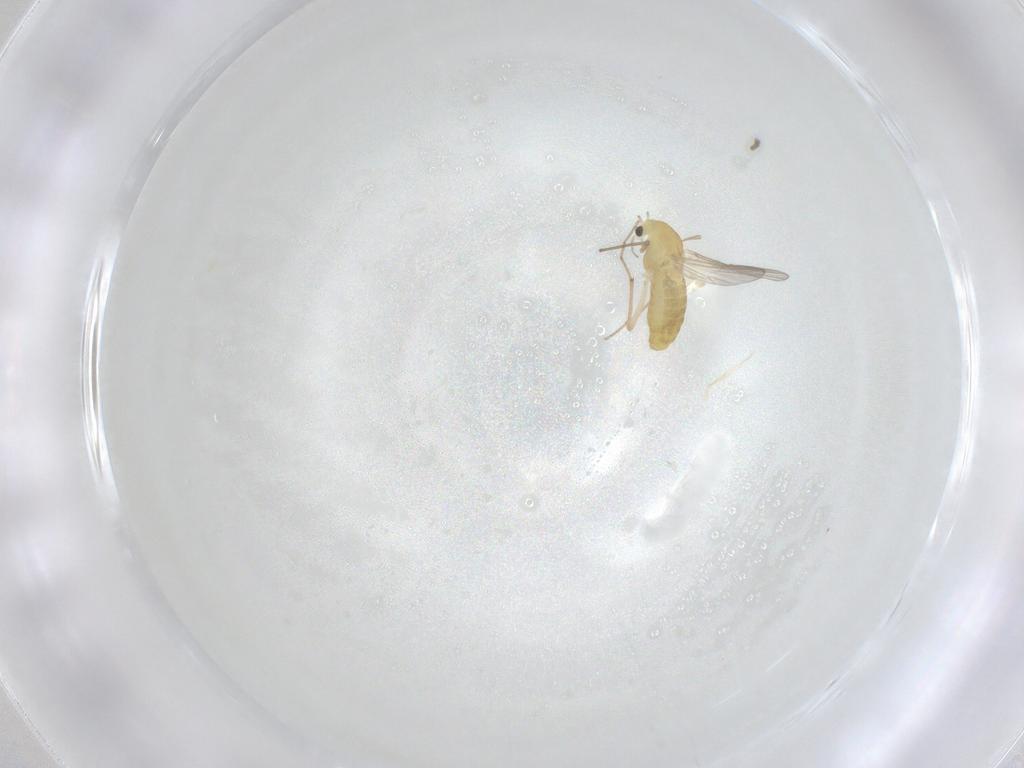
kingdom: Animalia
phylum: Arthropoda
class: Insecta
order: Diptera
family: Chironomidae
